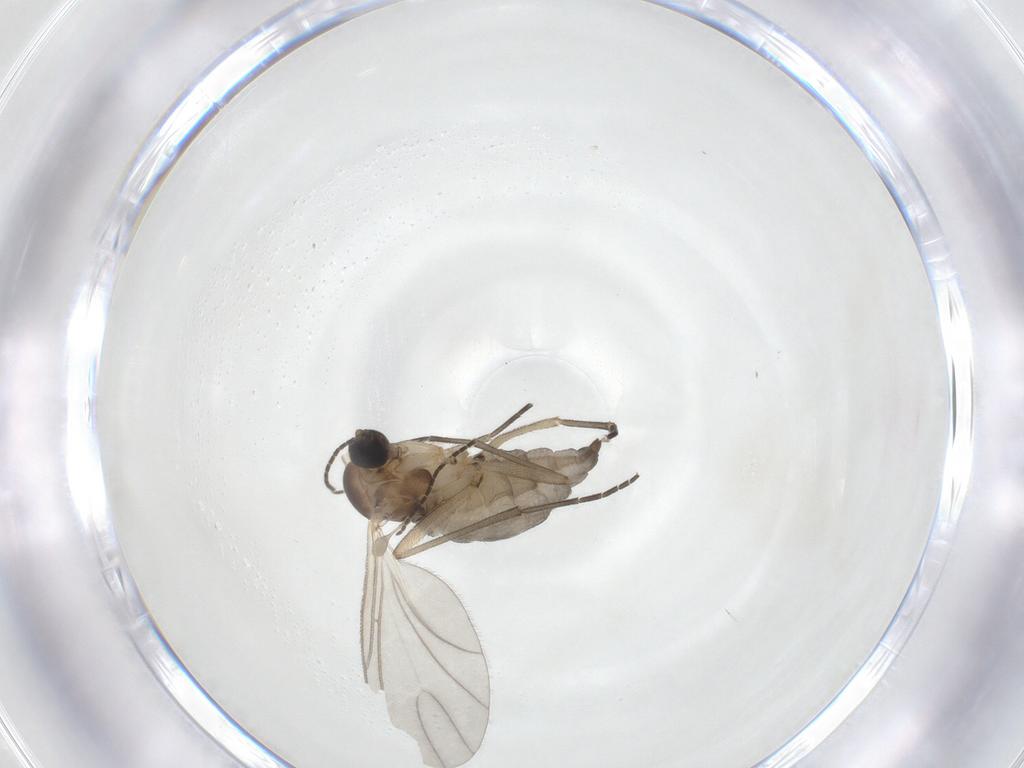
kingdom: Animalia
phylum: Arthropoda
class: Insecta
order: Diptera
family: Sciaridae
